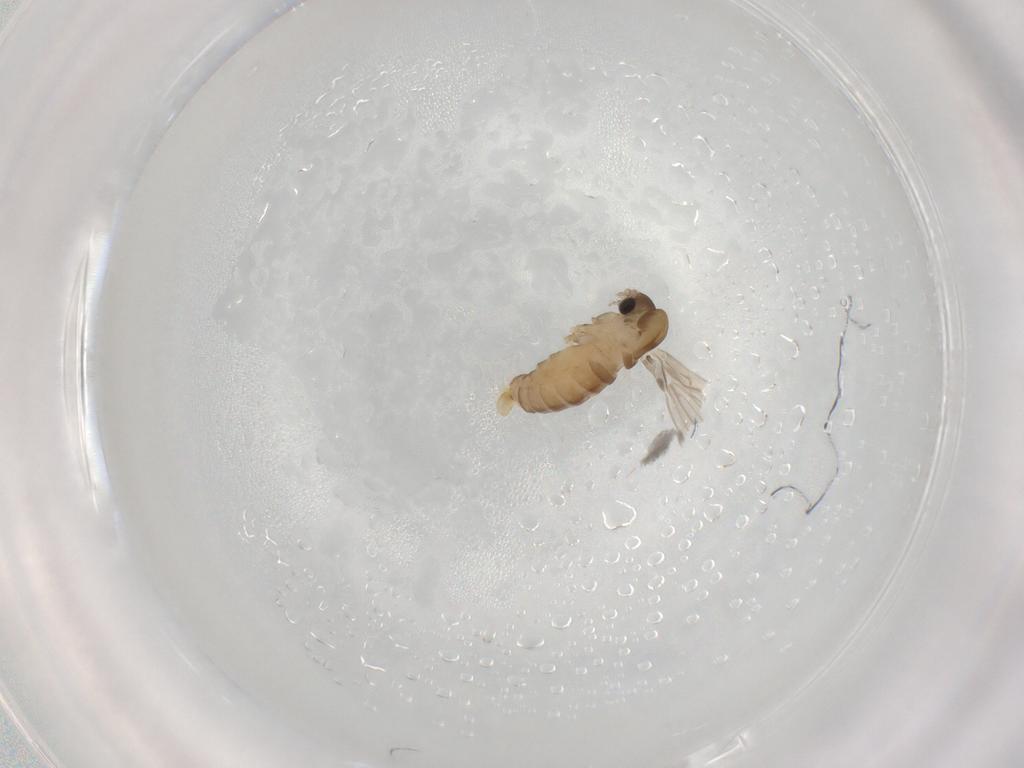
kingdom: Animalia
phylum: Arthropoda
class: Insecta
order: Diptera
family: Psychodidae
